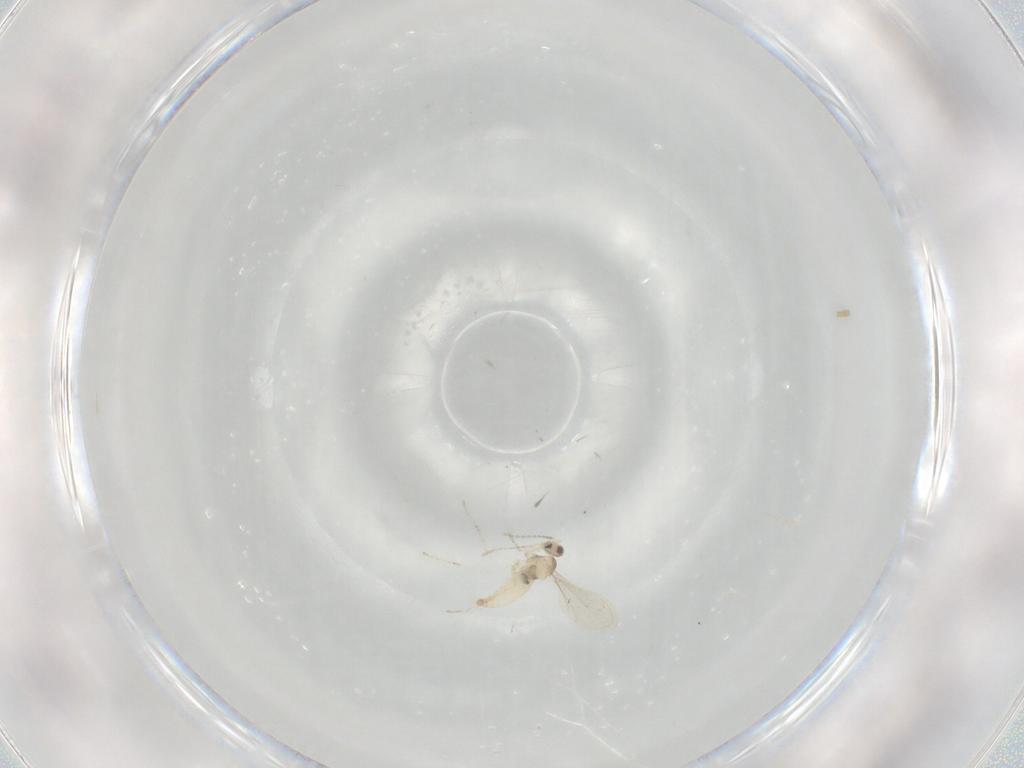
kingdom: Animalia
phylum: Arthropoda
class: Insecta
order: Diptera
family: Cecidomyiidae
